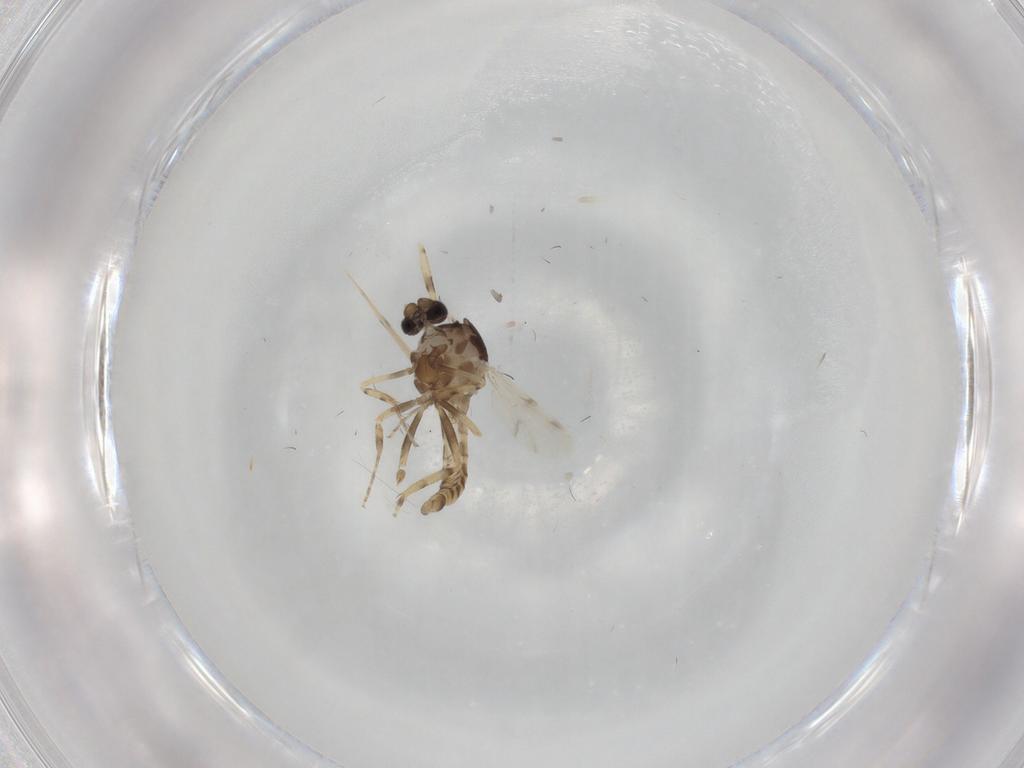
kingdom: Animalia
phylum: Arthropoda
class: Insecta
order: Diptera
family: Ceratopogonidae
